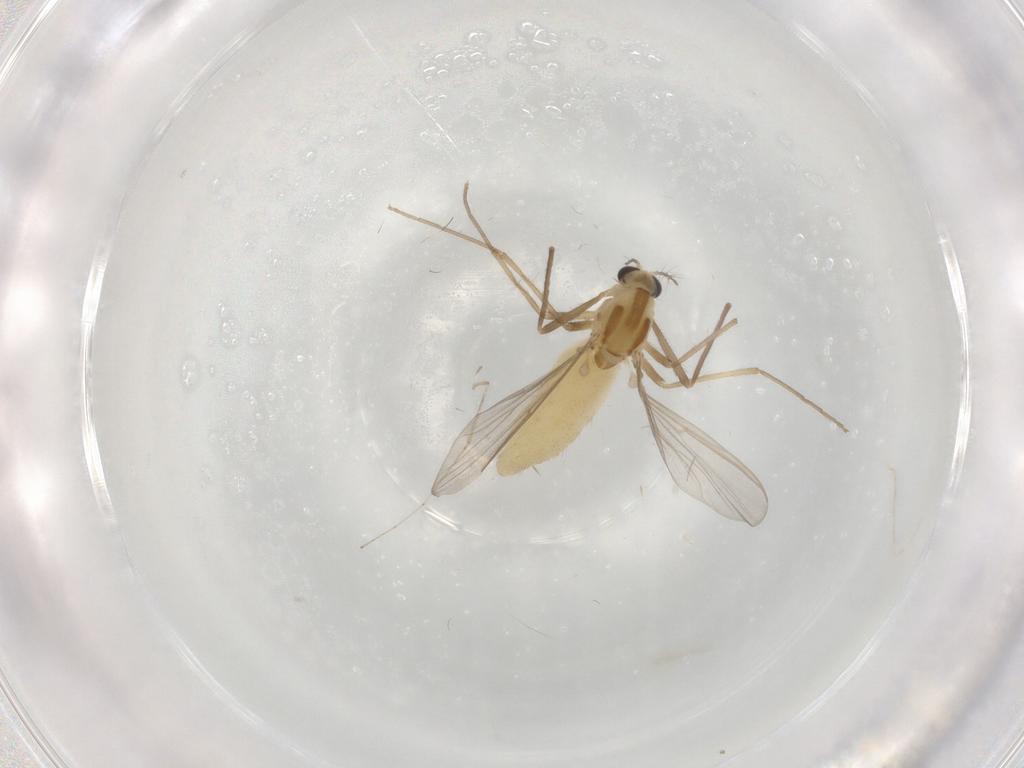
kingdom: Animalia
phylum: Arthropoda
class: Insecta
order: Diptera
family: Chironomidae
